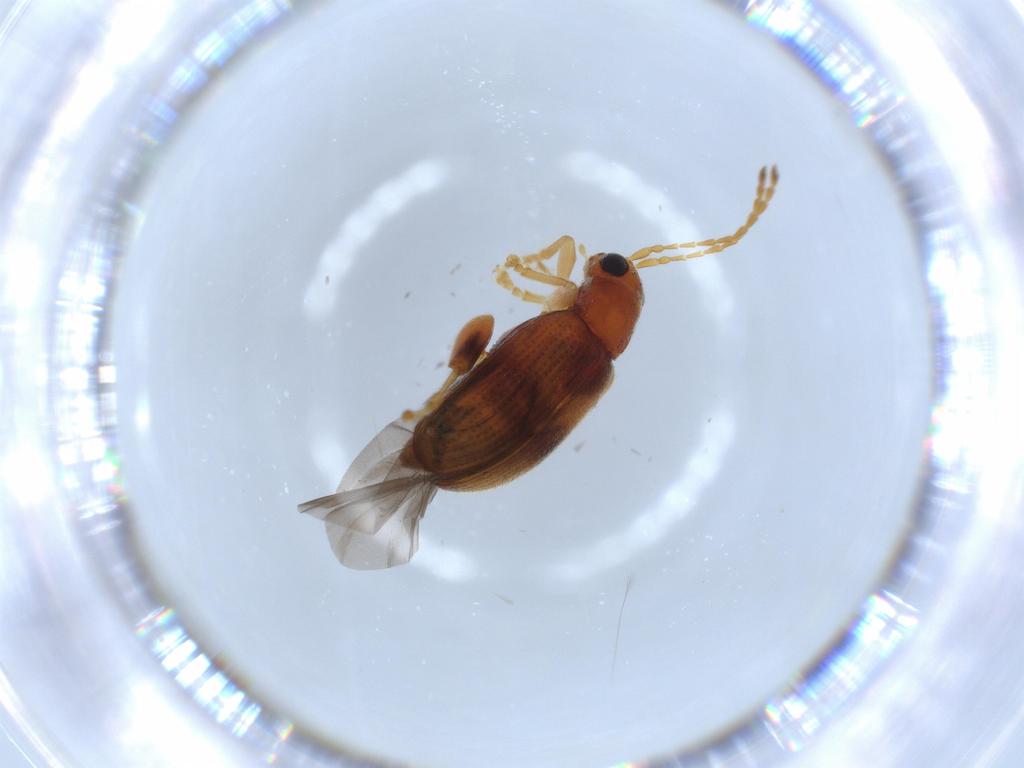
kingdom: Animalia
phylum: Arthropoda
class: Insecta
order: Coleoptera
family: Chrysomelidae
